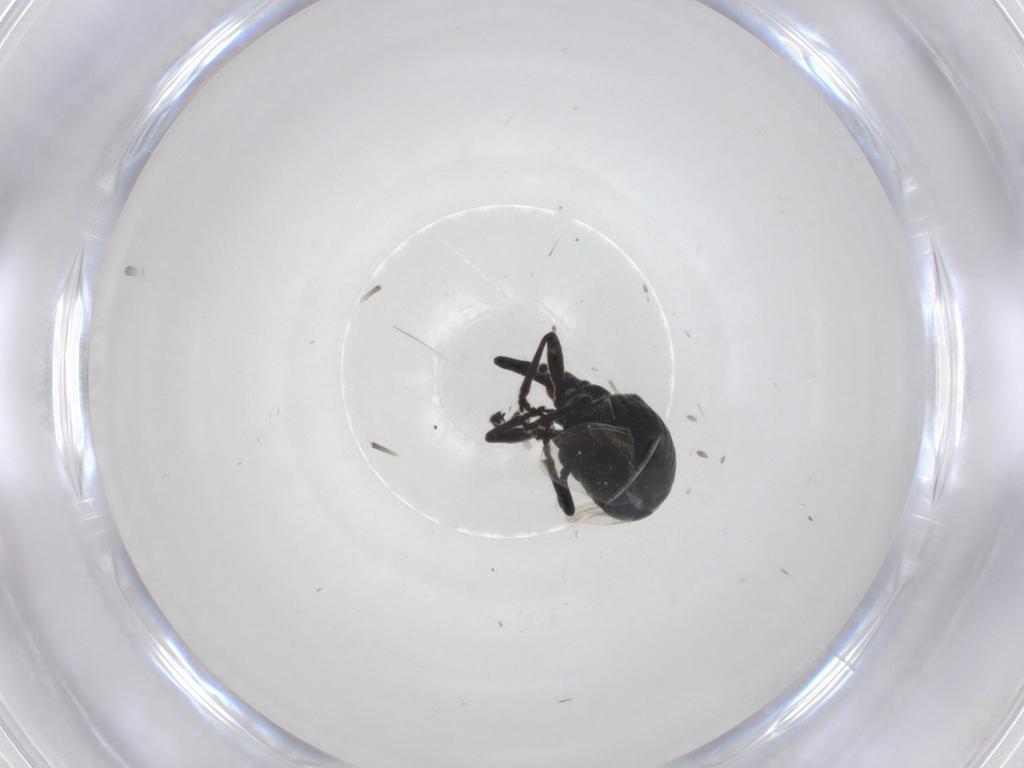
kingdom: Animalia
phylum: Arthropoda
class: Insecta
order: Coleoptera
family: Brentidae
